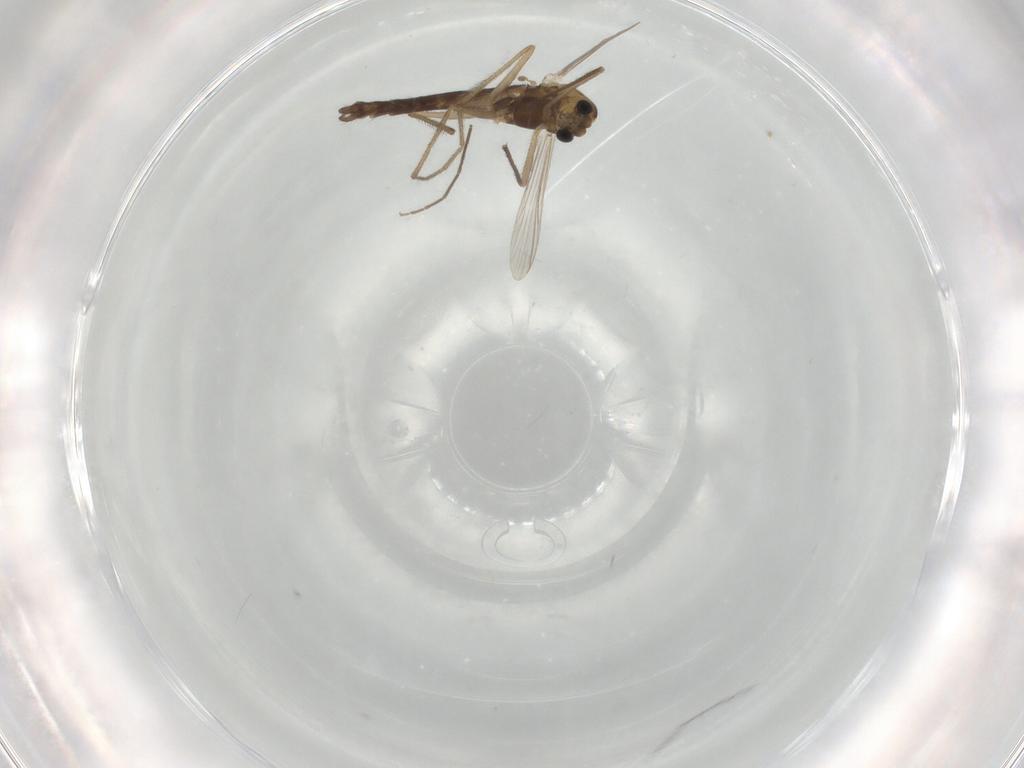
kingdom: Animalia
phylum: Arthropoda
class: Insecta
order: Diptera
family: Chironomidae
